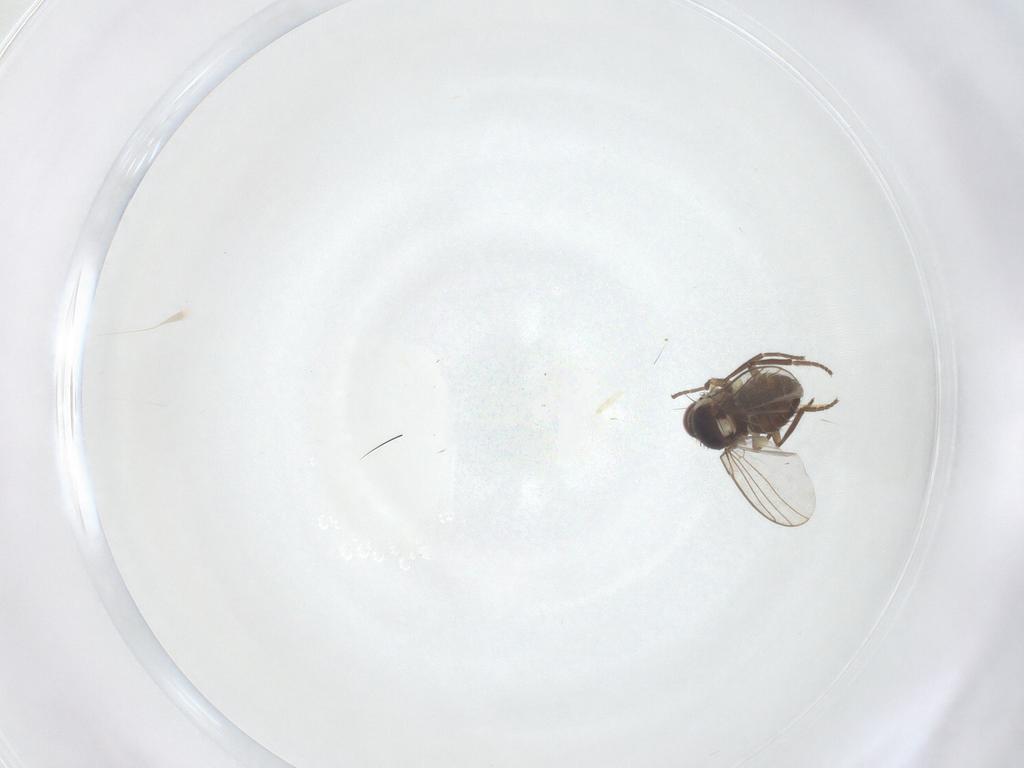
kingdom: Animalia
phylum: Arthropoda
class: Insecta
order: Diptera
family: Agromyzidae
